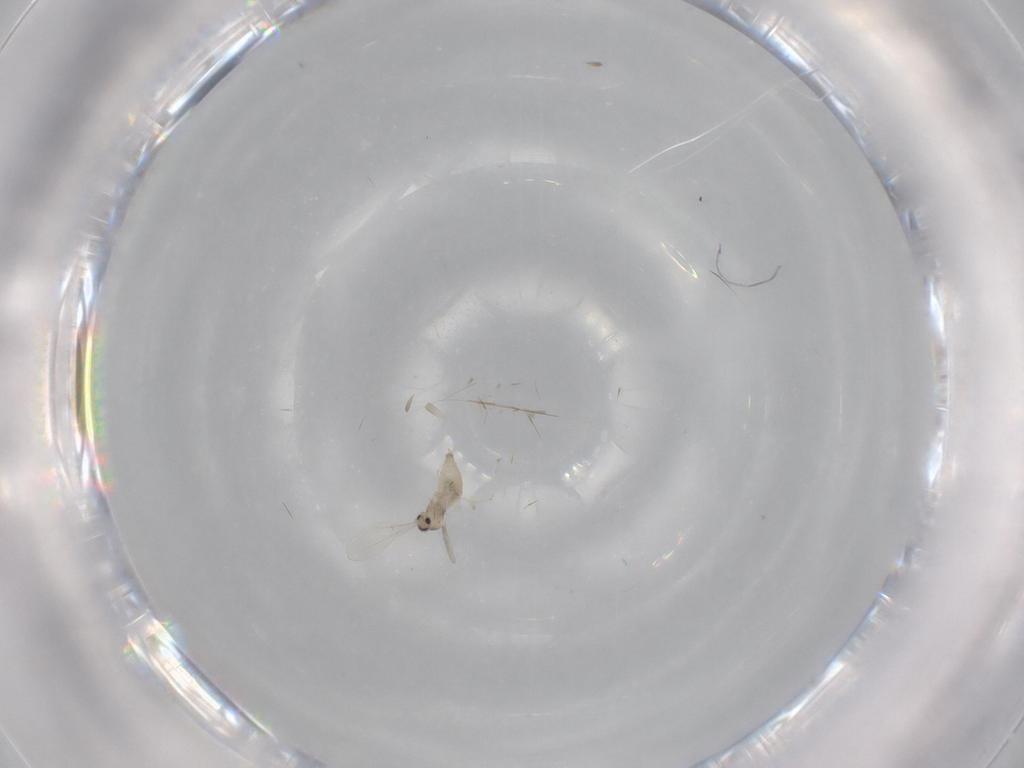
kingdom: Animalia
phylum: Arthropoda
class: Insecta
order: Diptera
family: Cecidomyiidae
